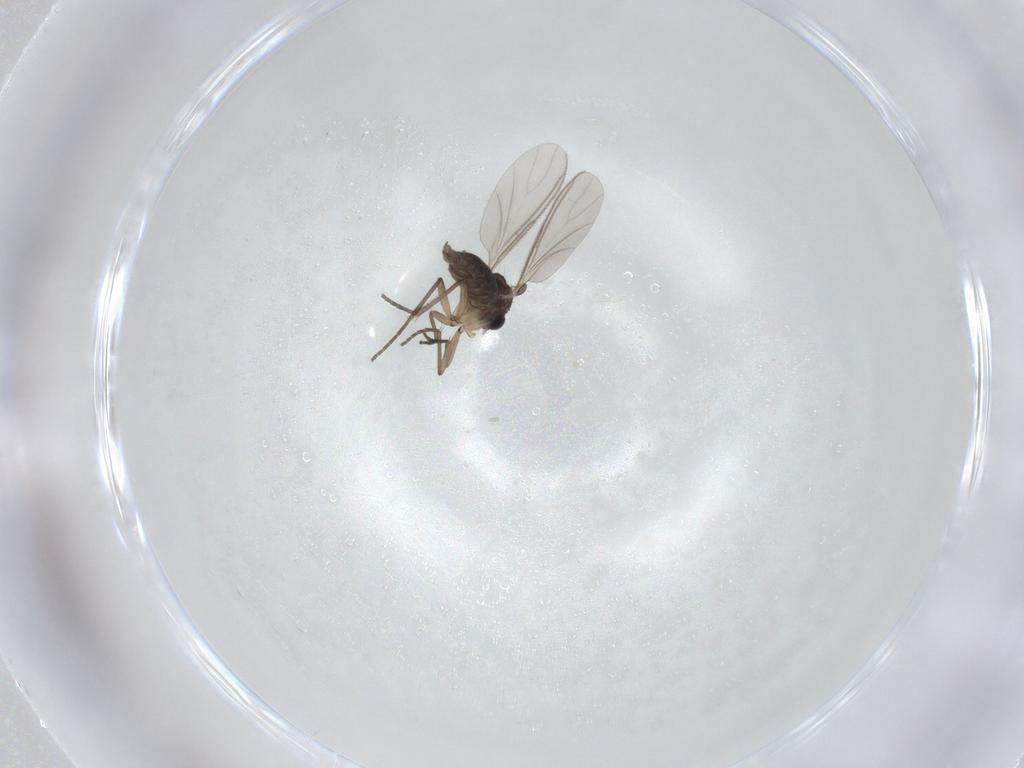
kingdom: Animalia
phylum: Arthropoda
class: Insecta
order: Diptera
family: Sciaridae
